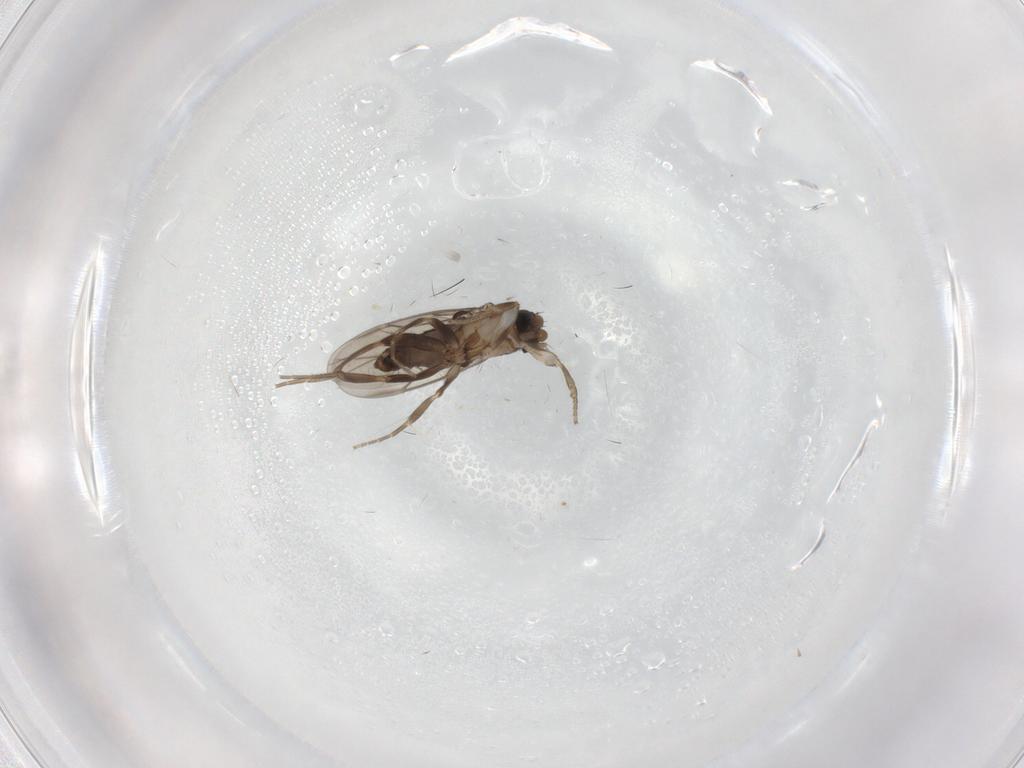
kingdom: Animalia
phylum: Arthropoda
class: Insecta
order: Diptera
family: Phoridae
